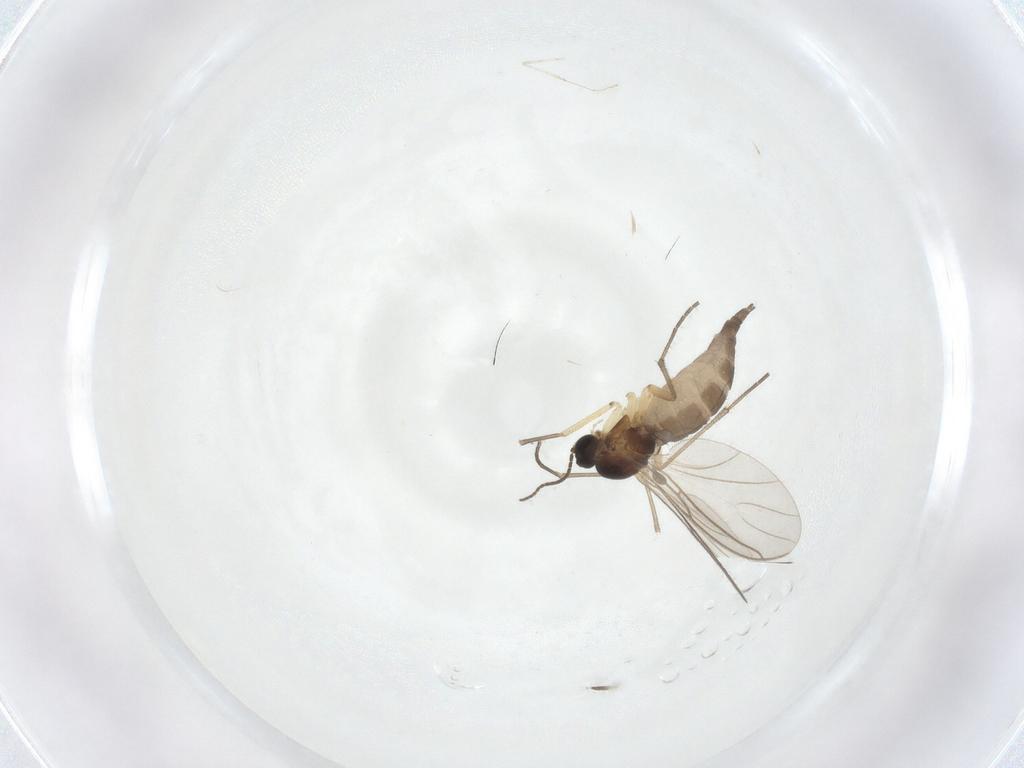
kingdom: Animalia
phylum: Arthropoda
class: Insecta
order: Diptera
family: Sciaridae
